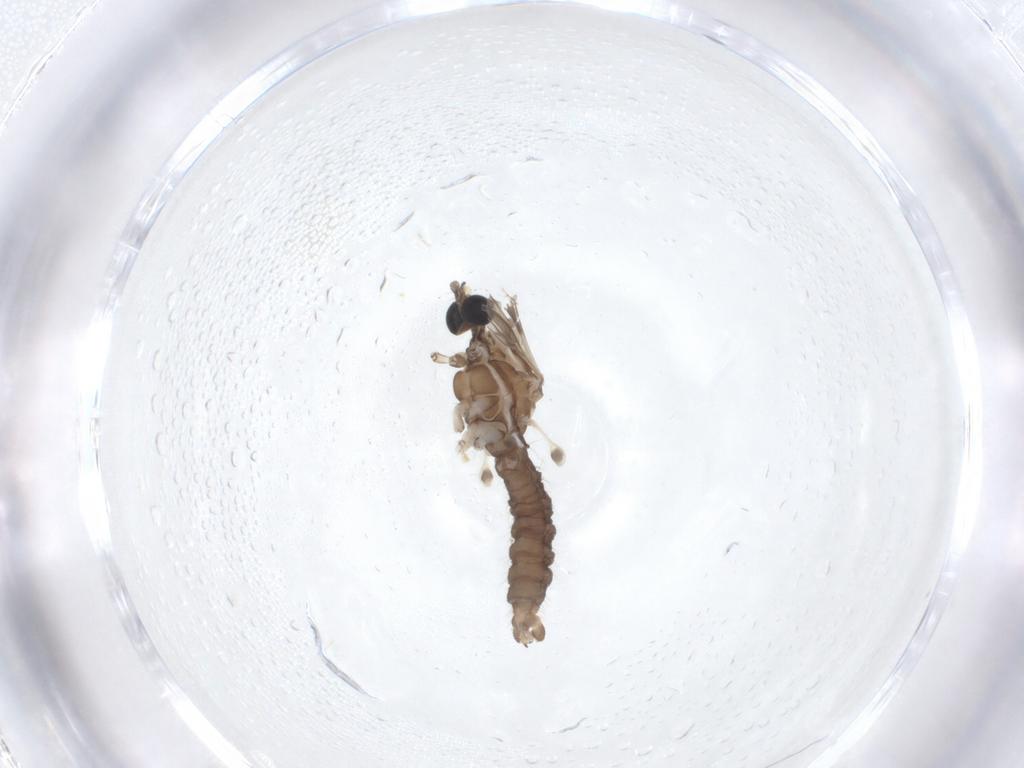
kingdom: Animalia
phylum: Arthropoda
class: Insecta
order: Diptera
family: Limoniidae
